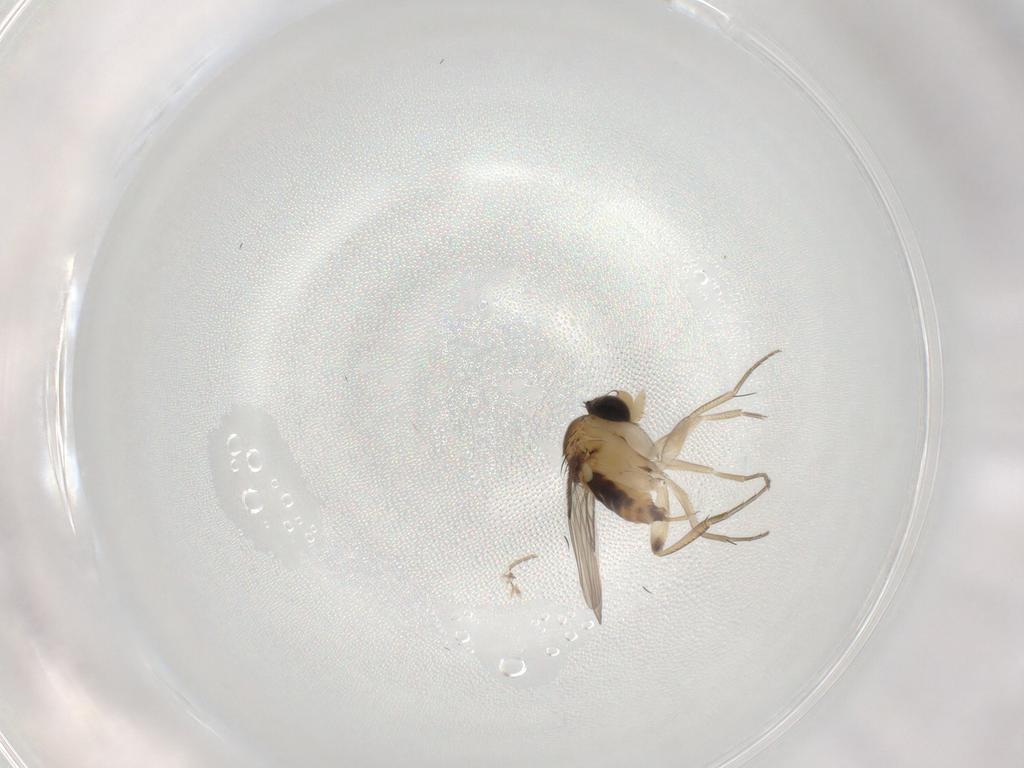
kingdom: Animalia
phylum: Arthropoda
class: Insecta
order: Diptera
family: Phoridae
